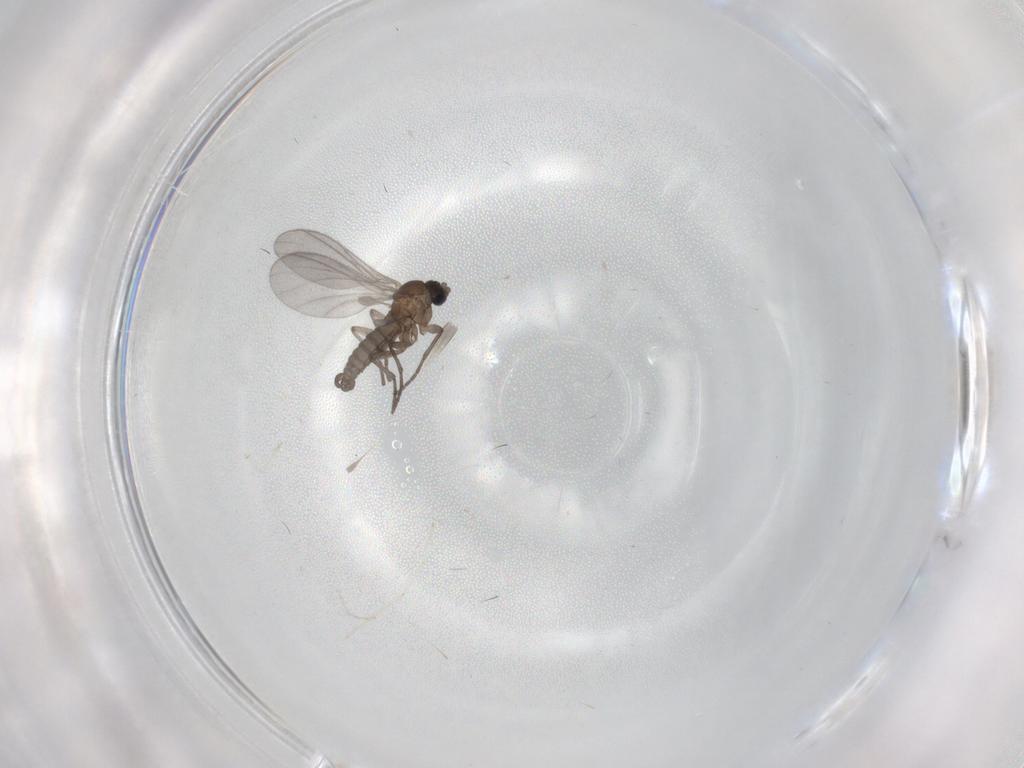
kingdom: Animalia
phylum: Arthropoda
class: Insecta
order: Diptera
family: Sciaridae
